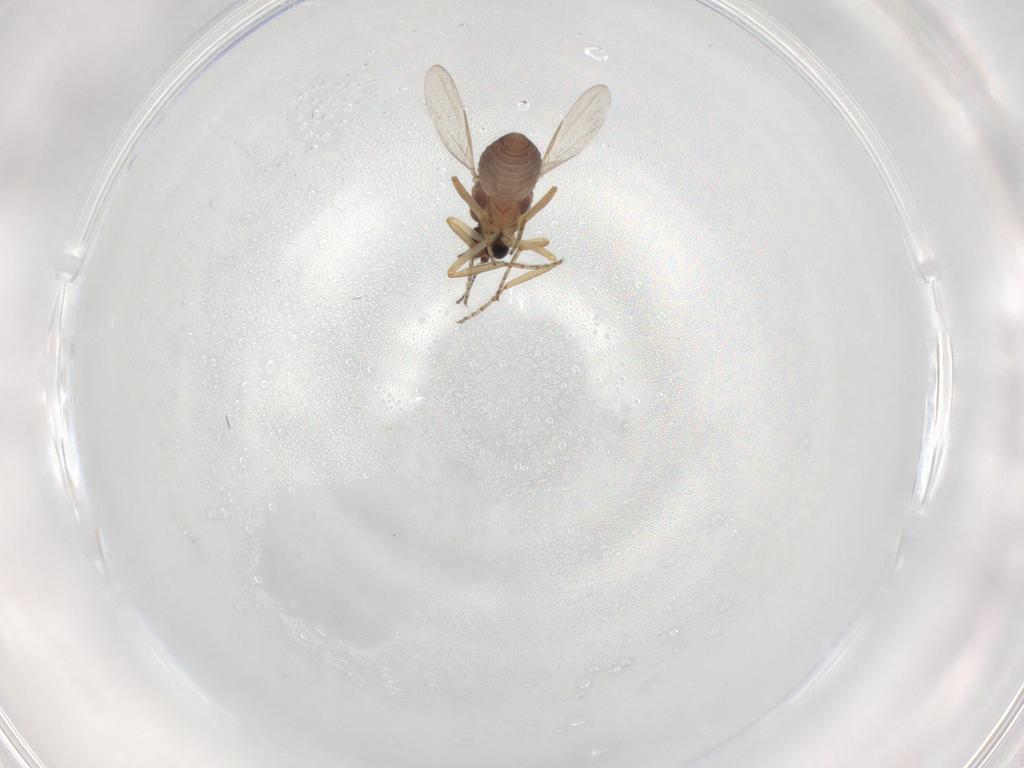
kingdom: Animalia
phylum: Arthropoda
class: Insecta
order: Diptera
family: Ceratopogonidae
